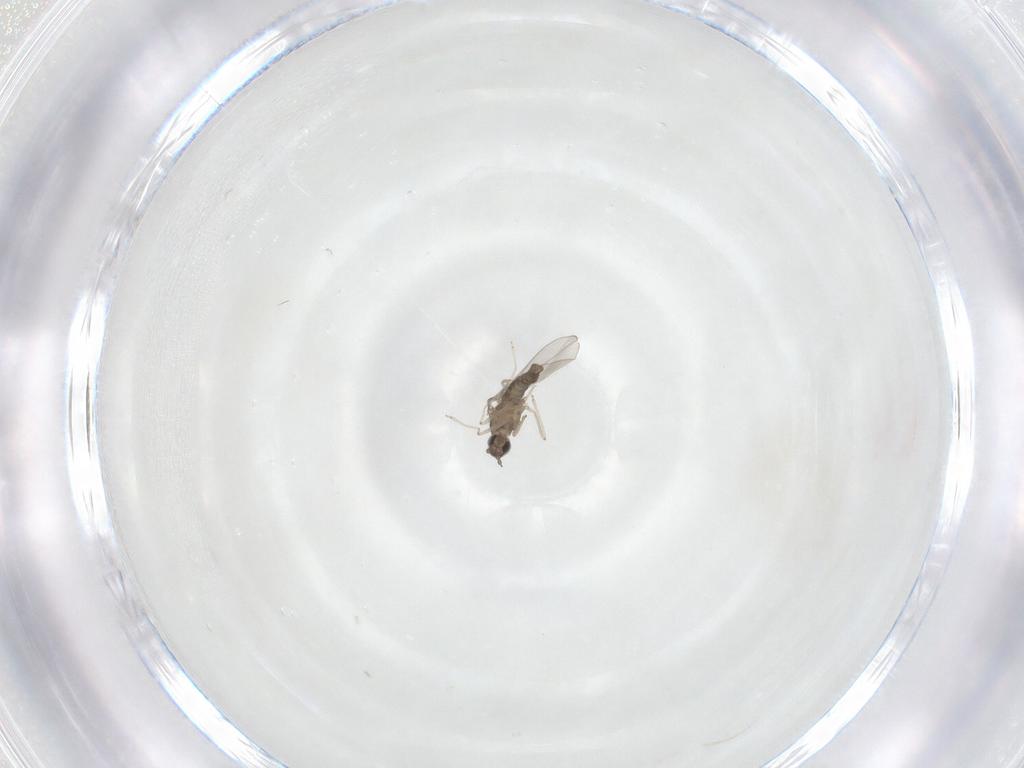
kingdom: Animalia
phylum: Arthropoda
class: Insecta
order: Diptera
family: Cecidomyiidae
